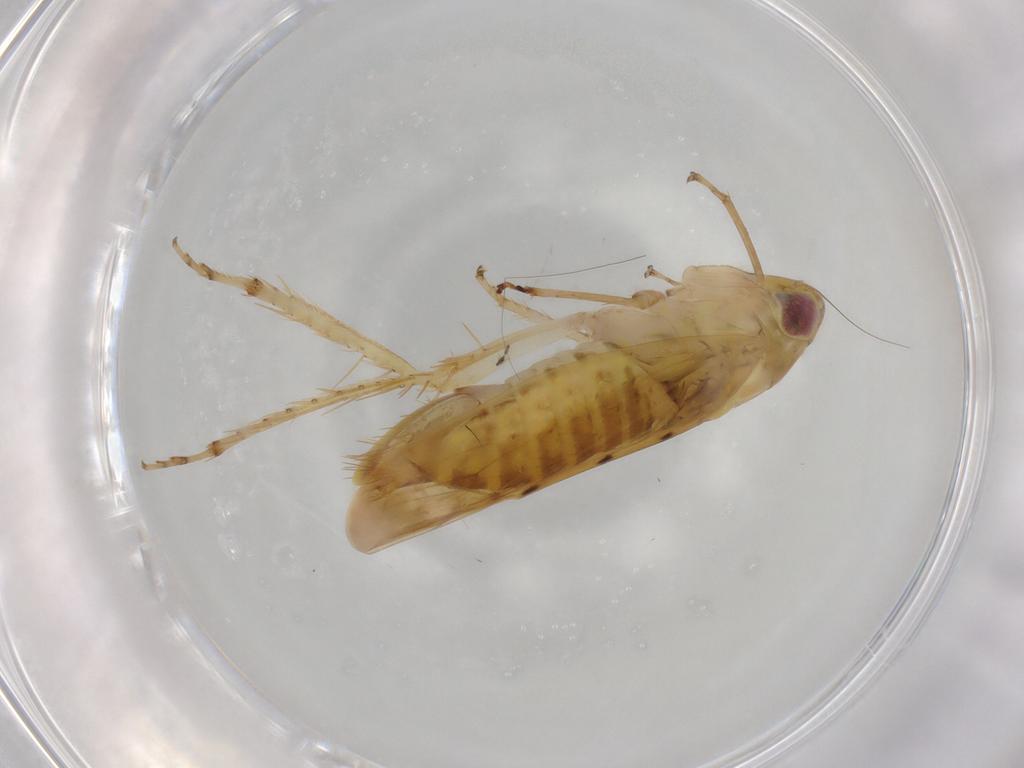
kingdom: Animalia
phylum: Arthropoda
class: Insecta
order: Hemiptera
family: Cicadellidae
